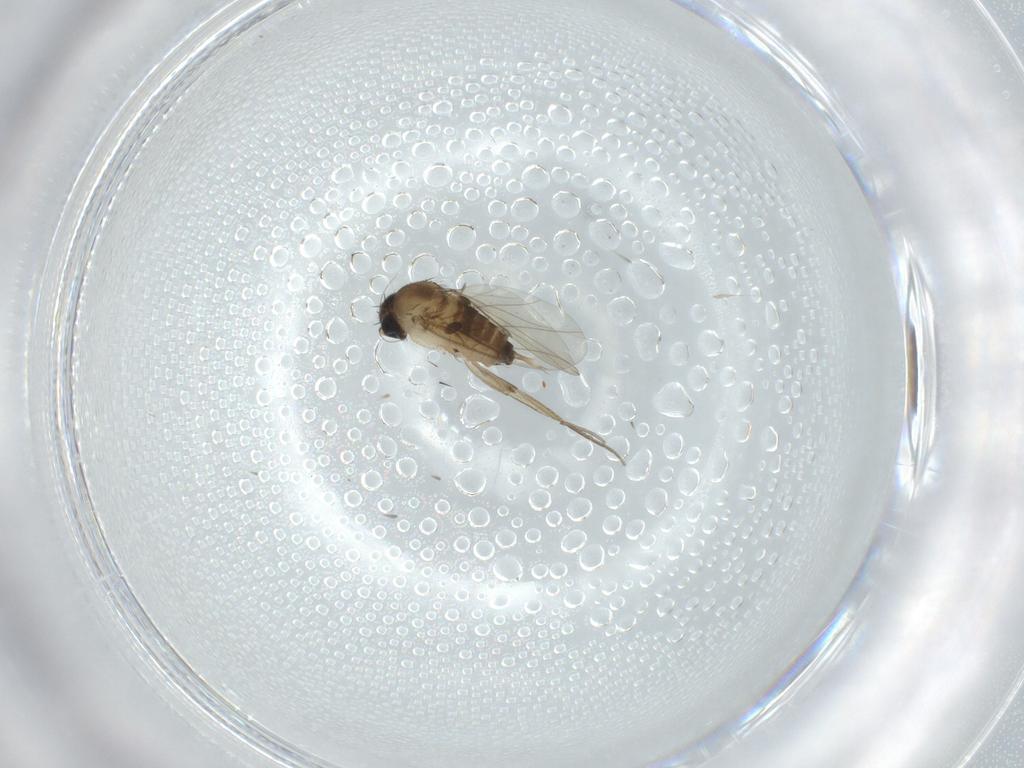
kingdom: Animalia
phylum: Arthropoda
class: Insecta
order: Diptera
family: Phoridae
